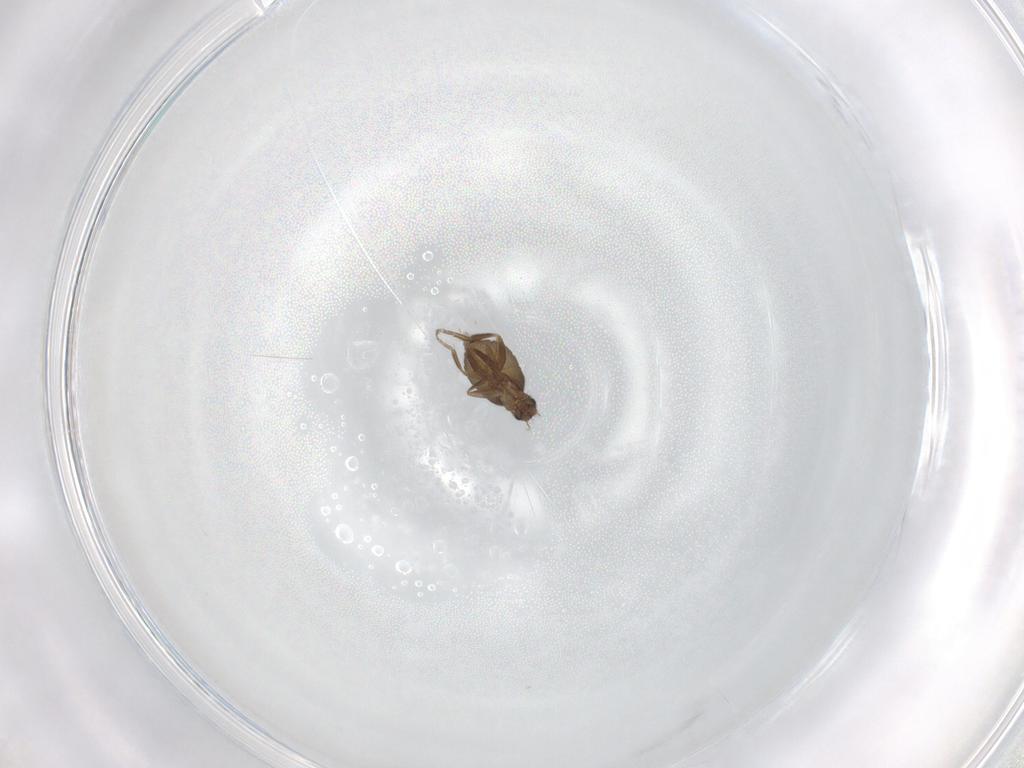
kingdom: Animalia
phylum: Arthropoda
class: Insecta
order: Diptera
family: Phoridae
